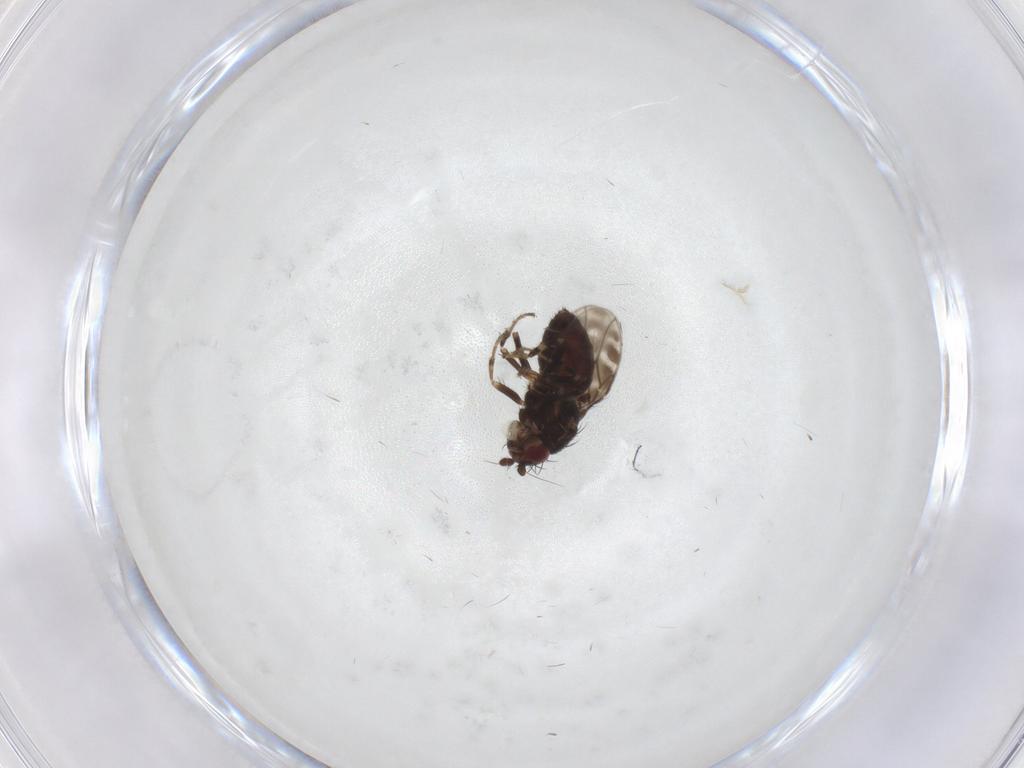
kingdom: Animalia
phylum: Arthropoda
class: Insecta
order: Diptera
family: Sphaeroceridae
